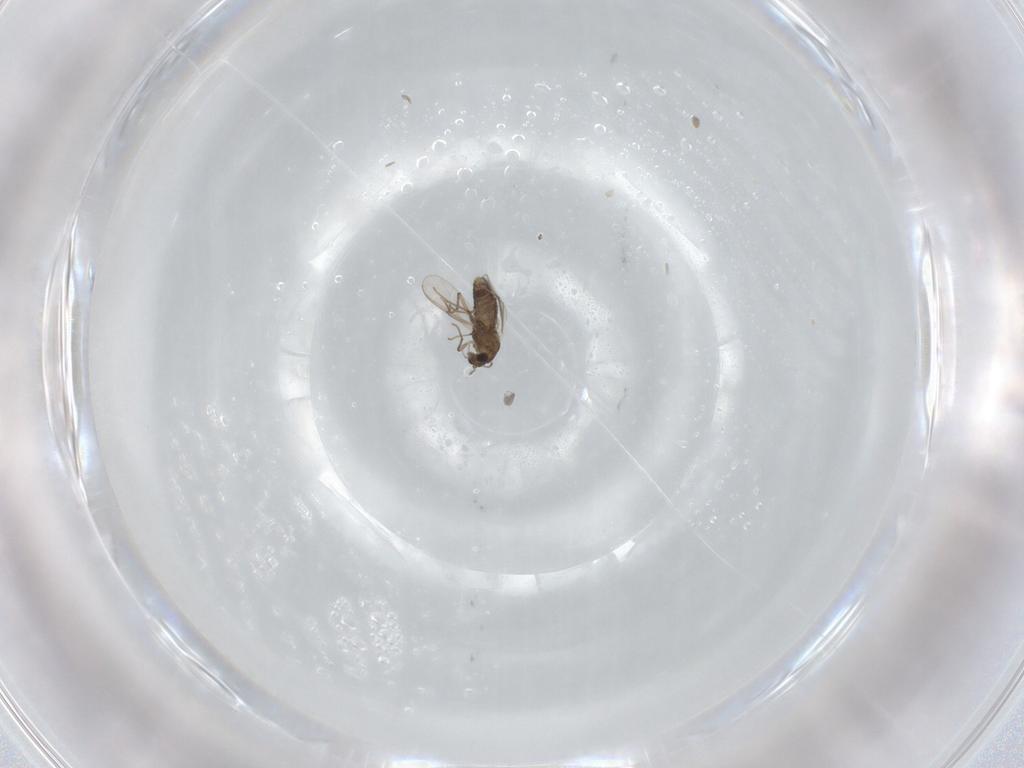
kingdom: Animalia
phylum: Arthropoda
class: Insecta
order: Diptera
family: Chironomidae
